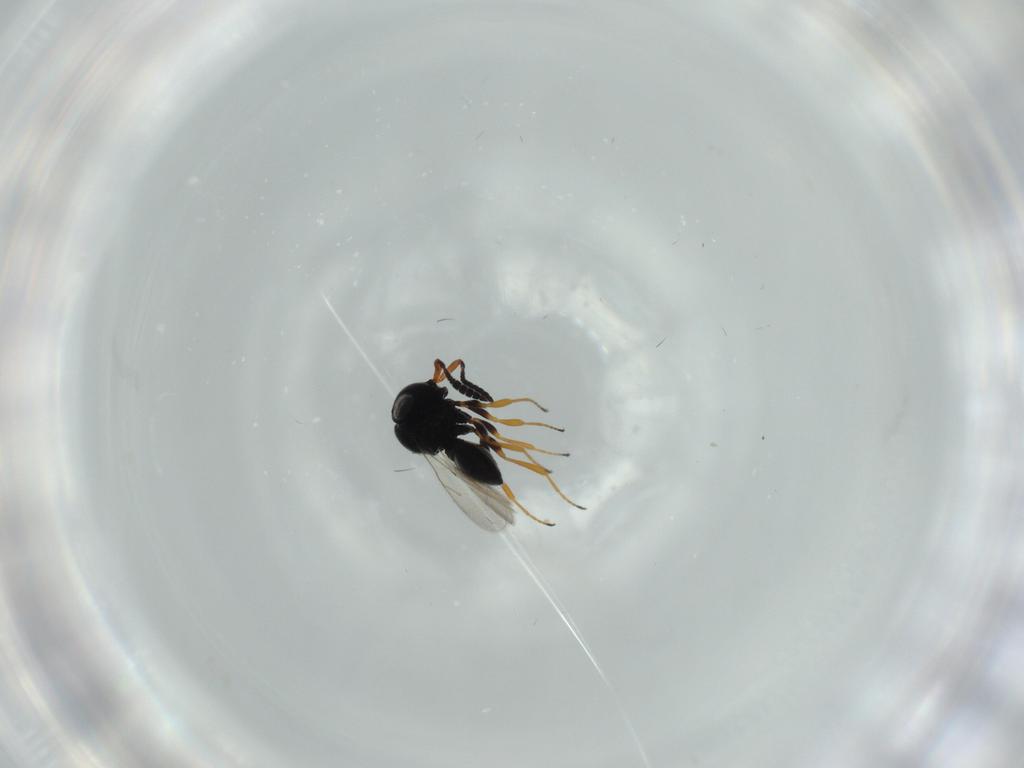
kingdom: Animalia
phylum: Arthropoda
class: Insecta
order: Hymenoptera
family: Scelionidae
